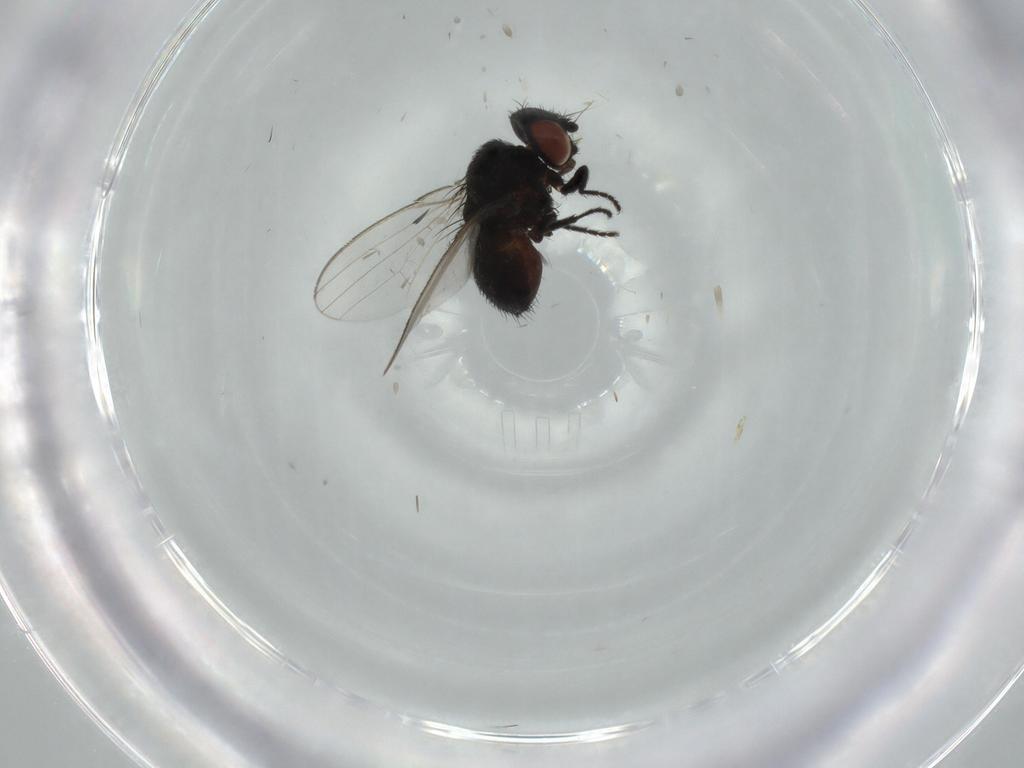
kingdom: Animalia
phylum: Arthropoda
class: Insecta
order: Diptera
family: Milichiidae
